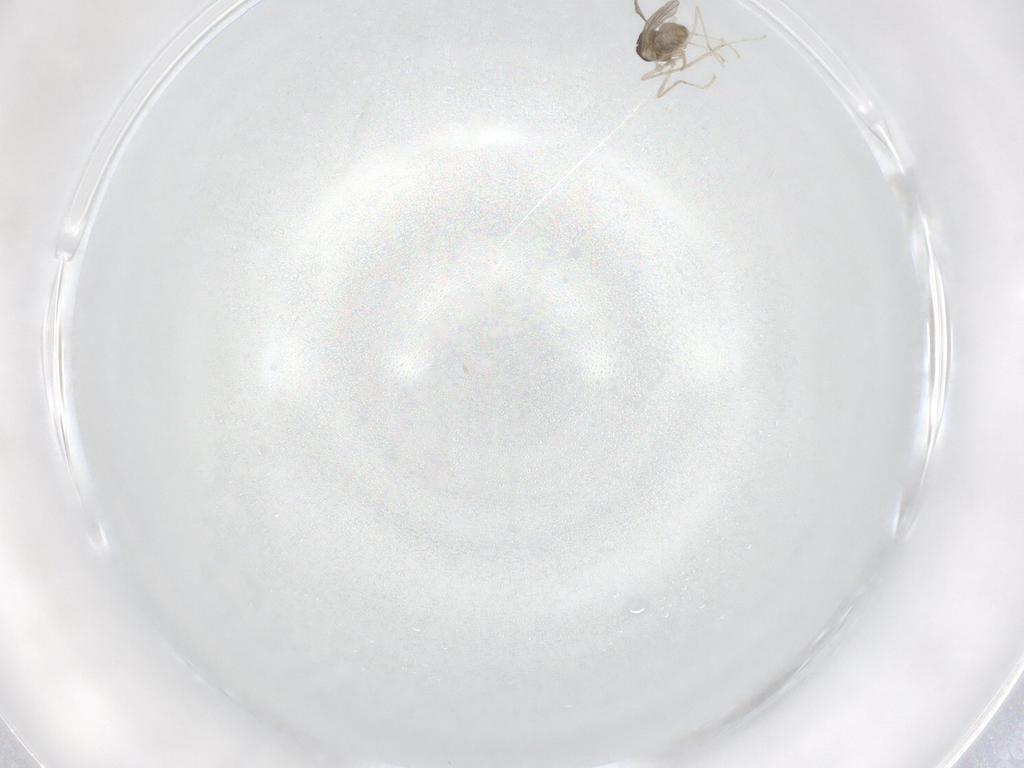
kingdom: Animalia
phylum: Arthropoda
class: Insecta
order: Diptera
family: Cecidomyiidae
